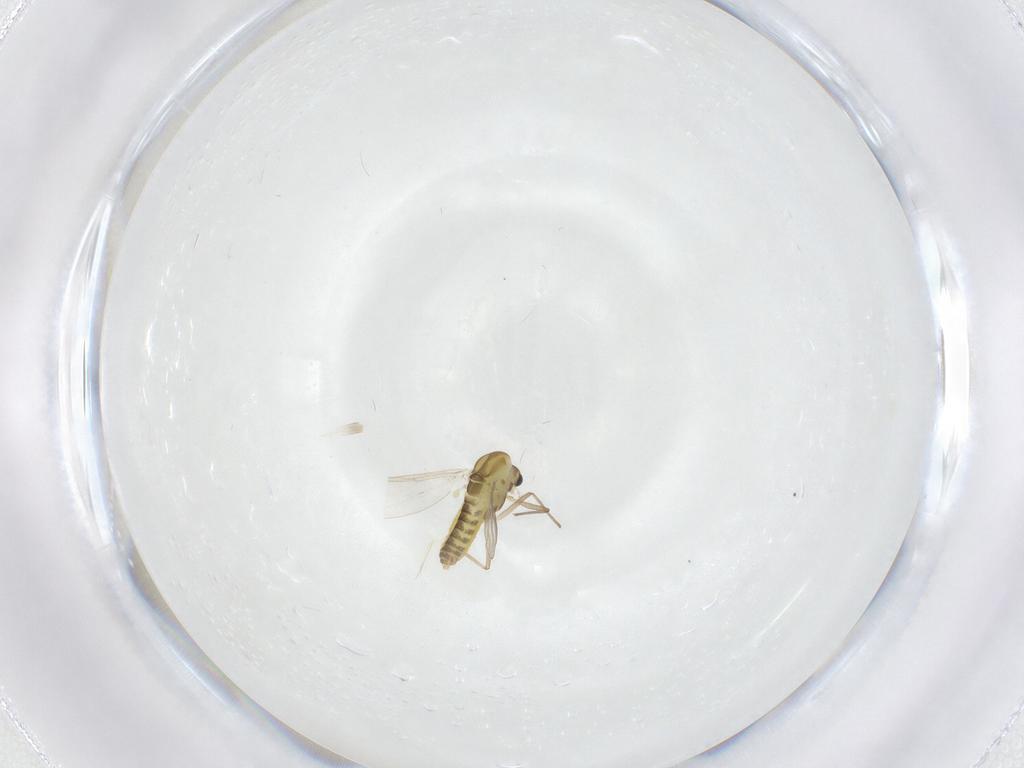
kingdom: Animalia
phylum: Arthropoda
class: Insecta
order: Diptera
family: Chironomidae
